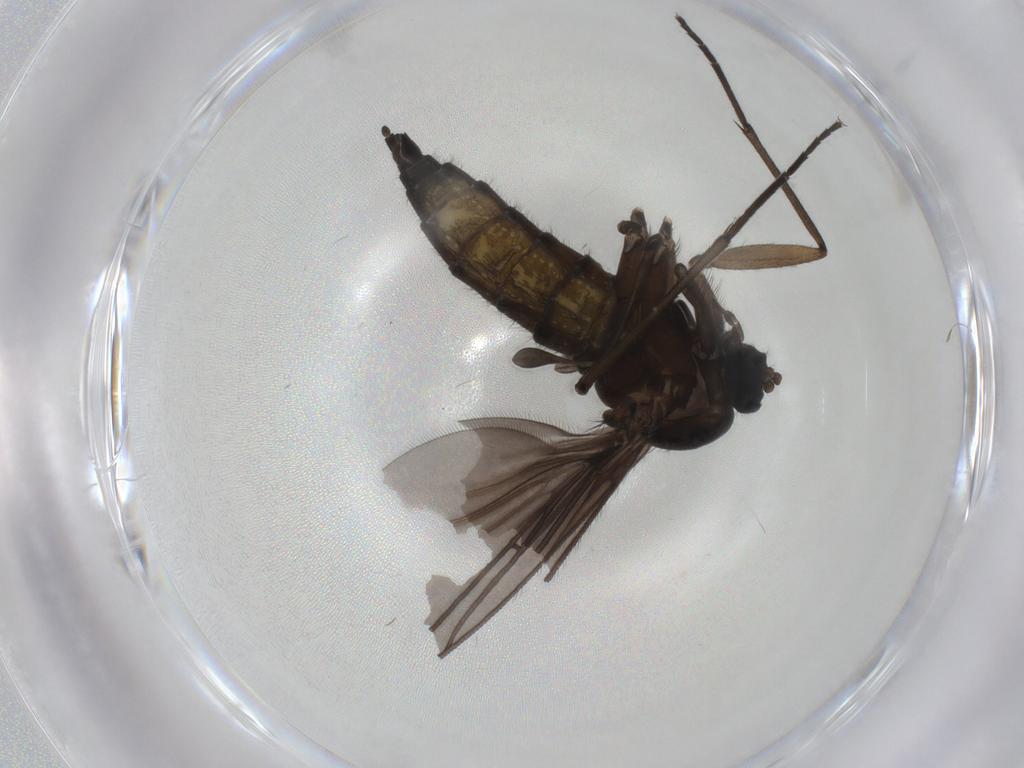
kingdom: Animalia
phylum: Arthropoda
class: Insecta
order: Diptera
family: Sciaridae
